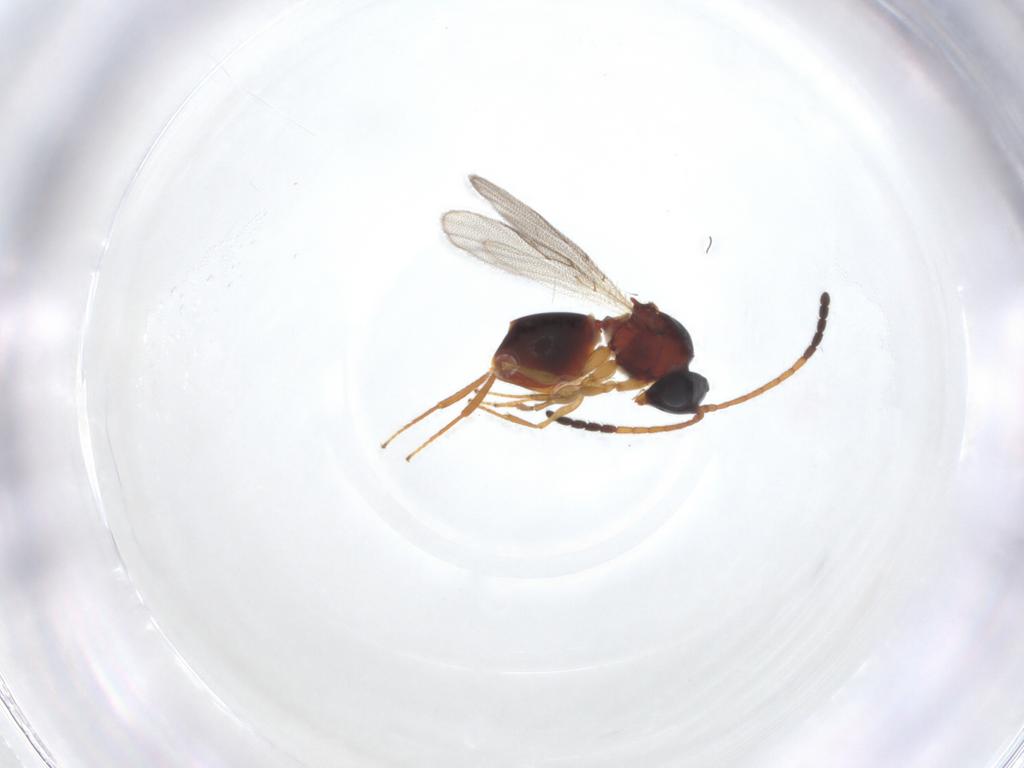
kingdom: Animalia
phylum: Arthropoda
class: Insecta
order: Hymenoptera
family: Figitidae
